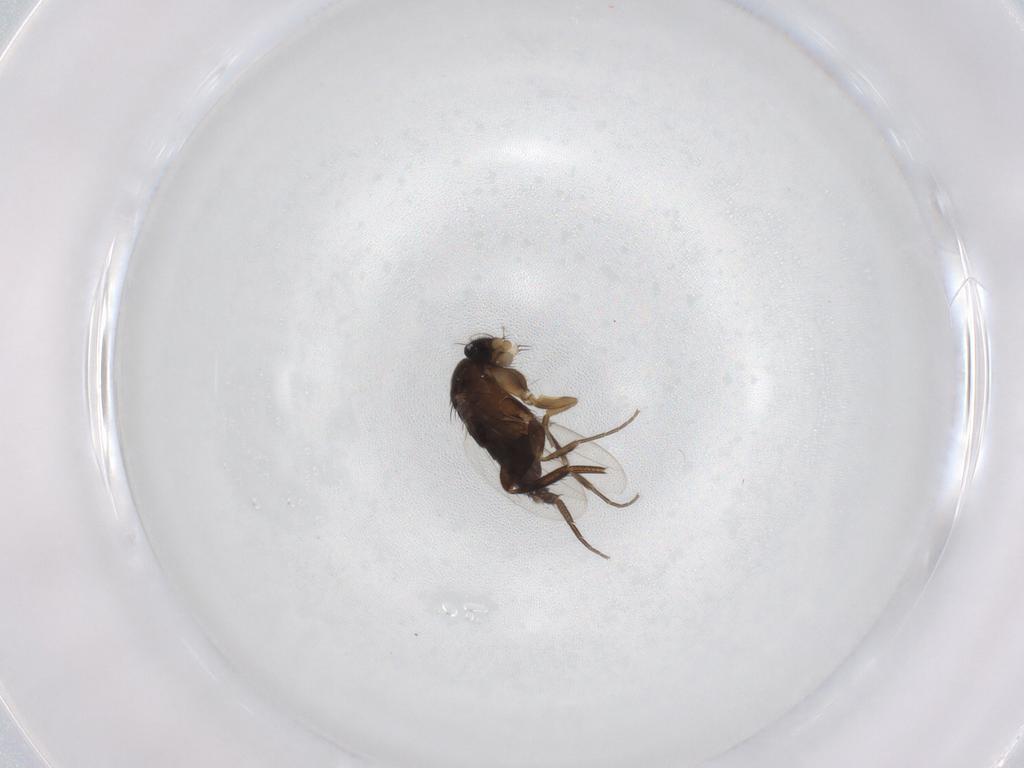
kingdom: Animalia
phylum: Arthropoda
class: Insecta
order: Diptera
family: Phoridae
